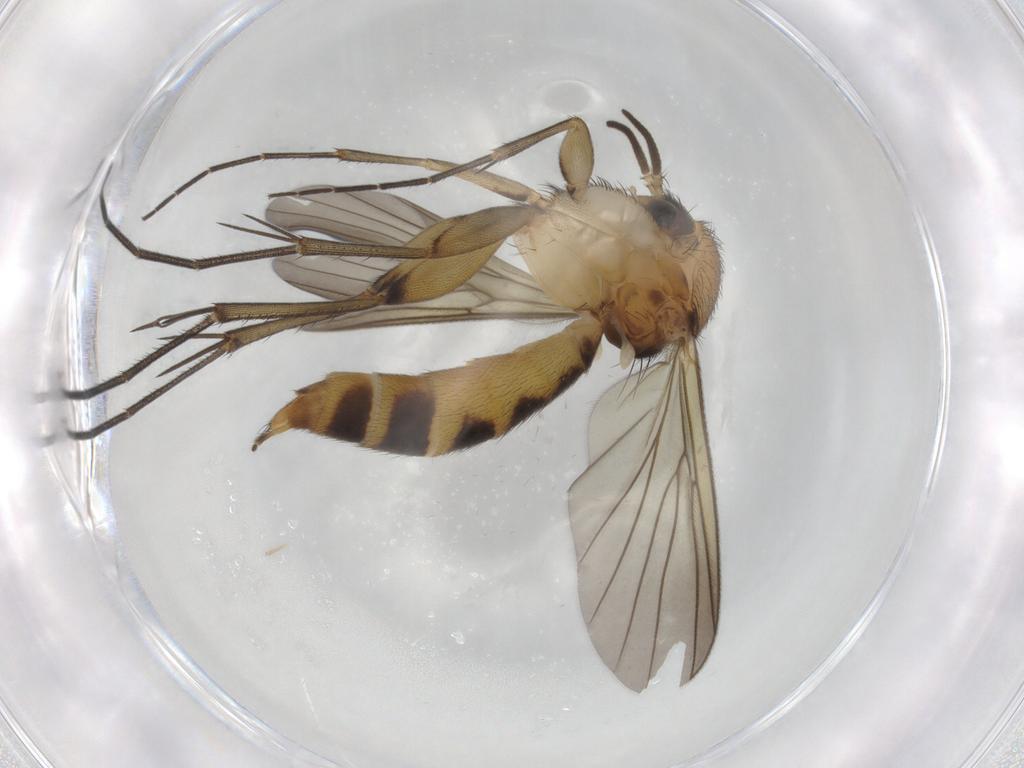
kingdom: Animalia
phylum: Arthropoda
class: Insecta
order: Diptera
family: Mycetophilidae
